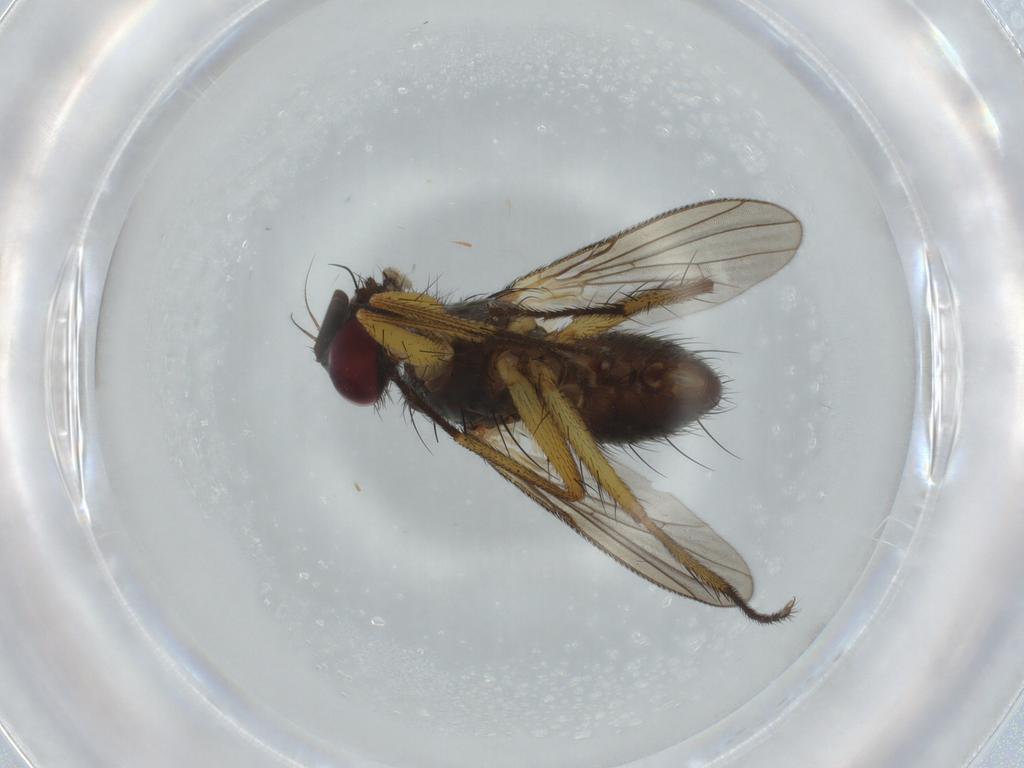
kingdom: Animalia
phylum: Arthropoda
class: Insecta
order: Diptera
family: Muscidae
